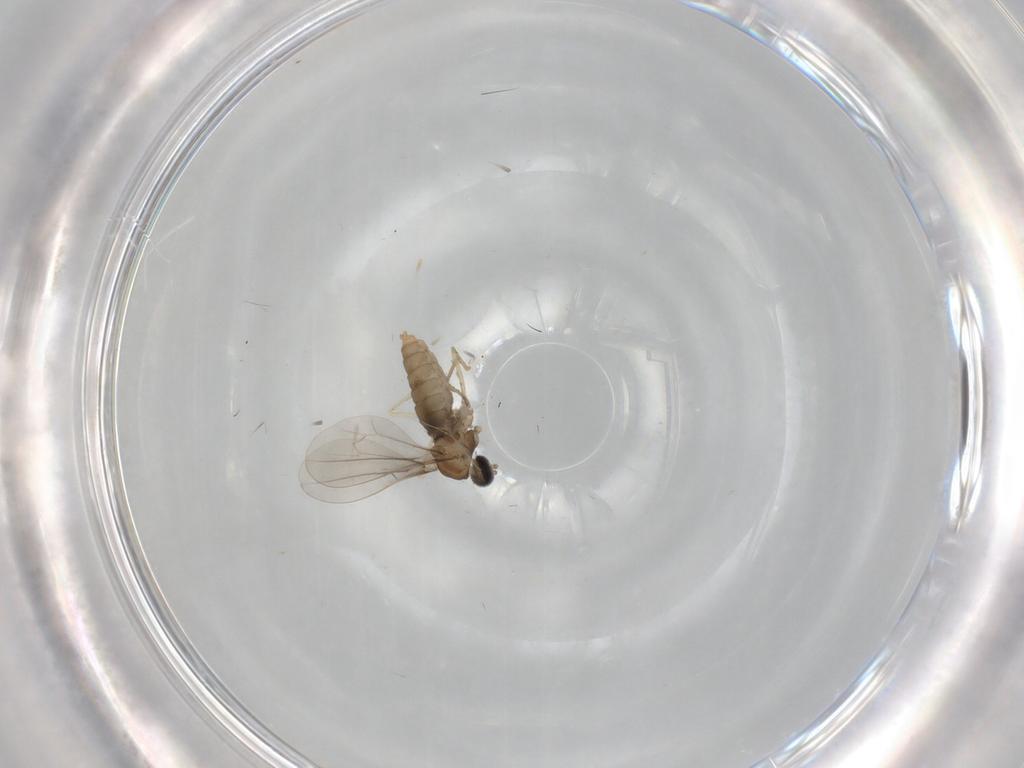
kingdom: Animalia
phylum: Arthropoda
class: Insecta
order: Diptera
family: Cecidomyiidae
